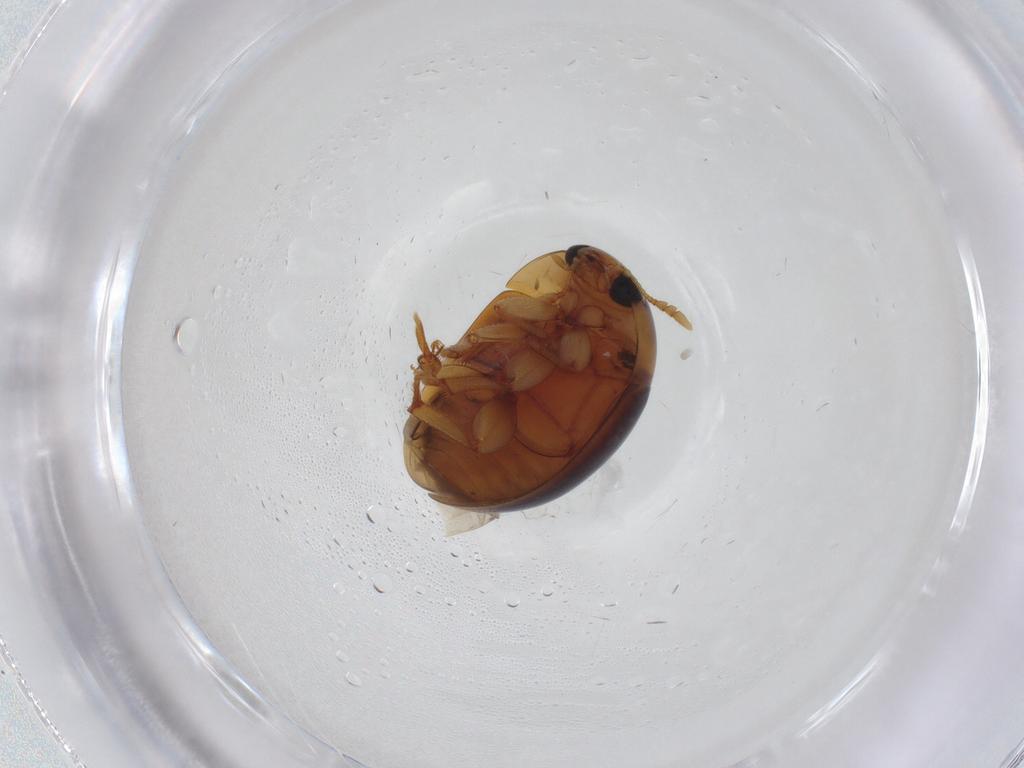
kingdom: Animalia
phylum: Arthropoda
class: Insecta
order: Coleoptera
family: Phalacridae
